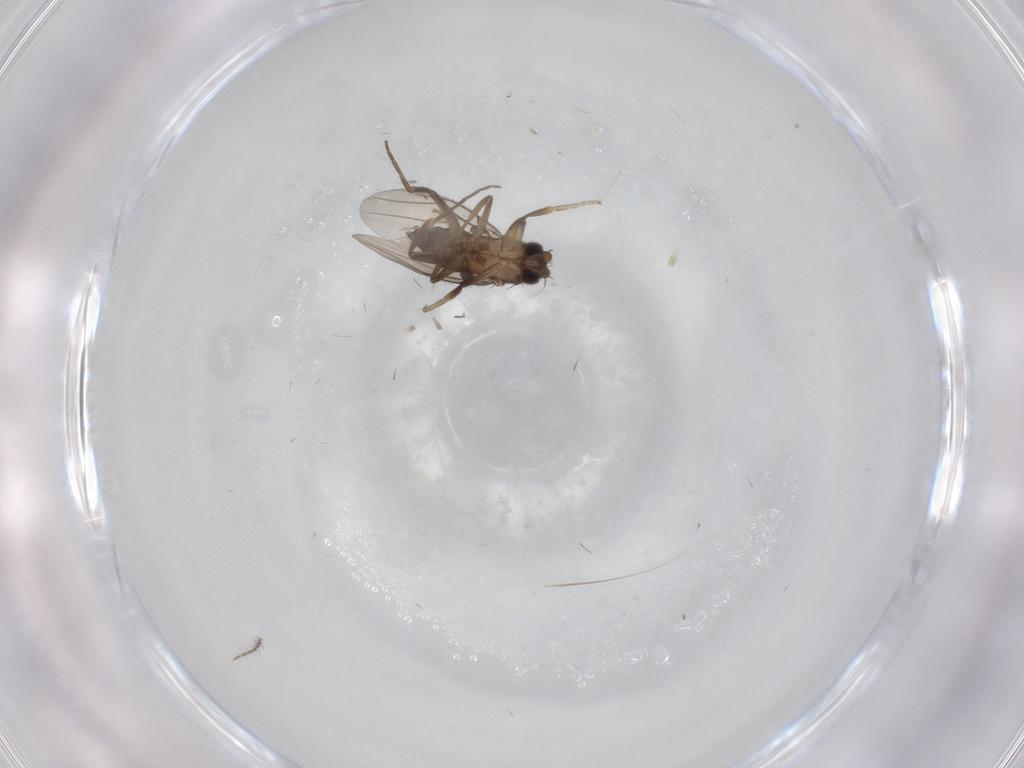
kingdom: Animalia
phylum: Arthropoda
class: Insecta
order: Diptera
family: Phoridae
